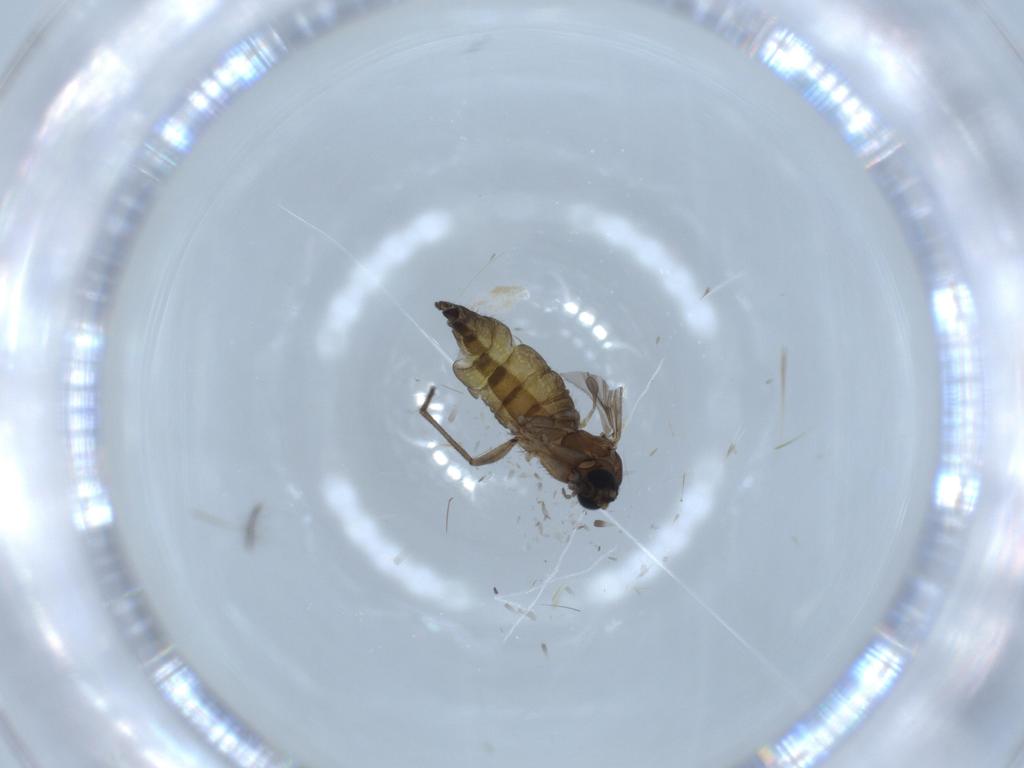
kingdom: Animalia
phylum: Arthropoda
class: Insecta
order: Diptera
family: Sciaridae
